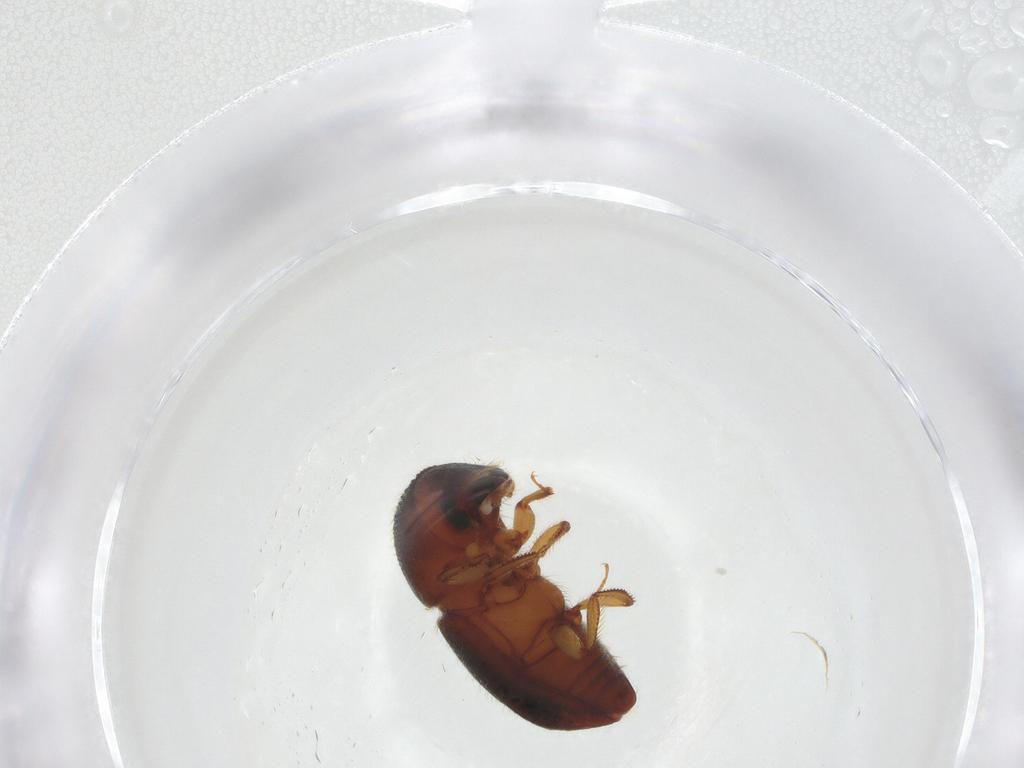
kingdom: Animalia
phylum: Arthropoda
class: Insecta
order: Coleoptera
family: Curculionidae
